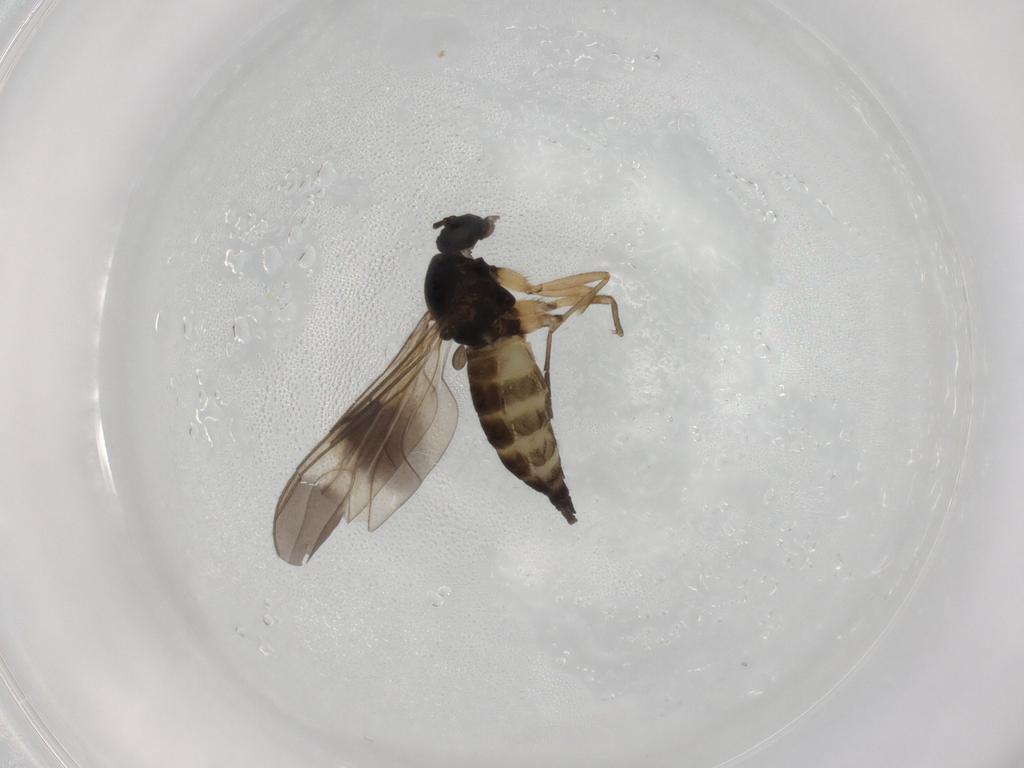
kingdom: Animalia
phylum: Arthropoda
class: Insecta
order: Diptera
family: Sciaridae
